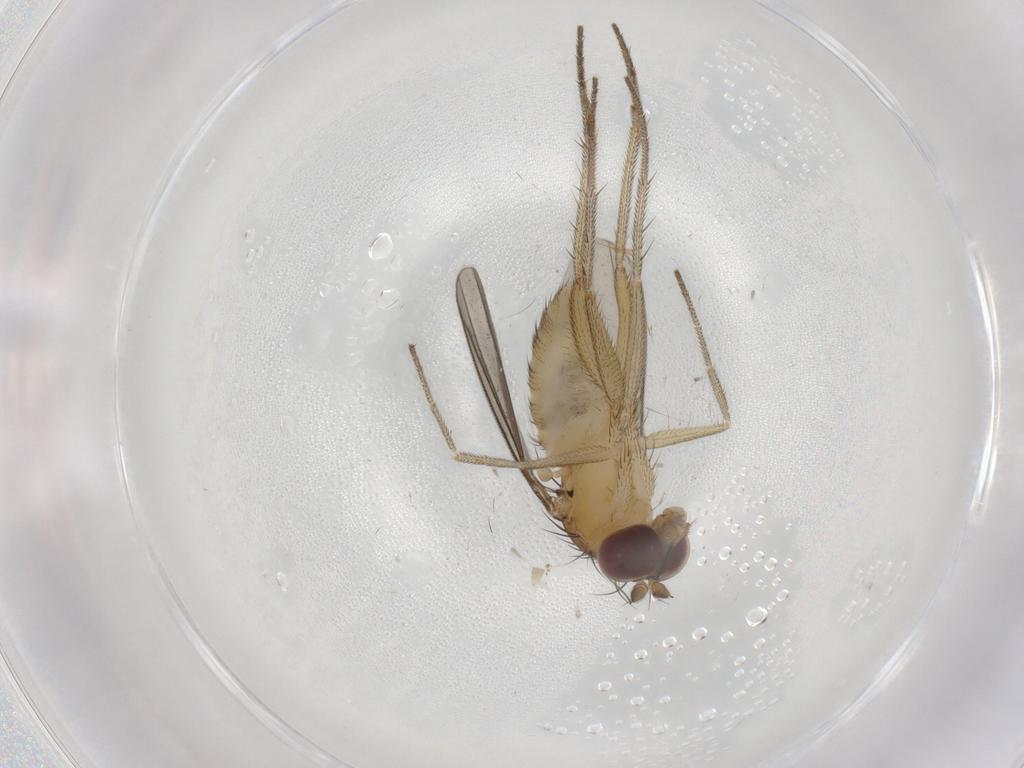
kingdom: Animalia
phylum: Arthropoda
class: Insecta
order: Diptera
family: Dolichopodidae
